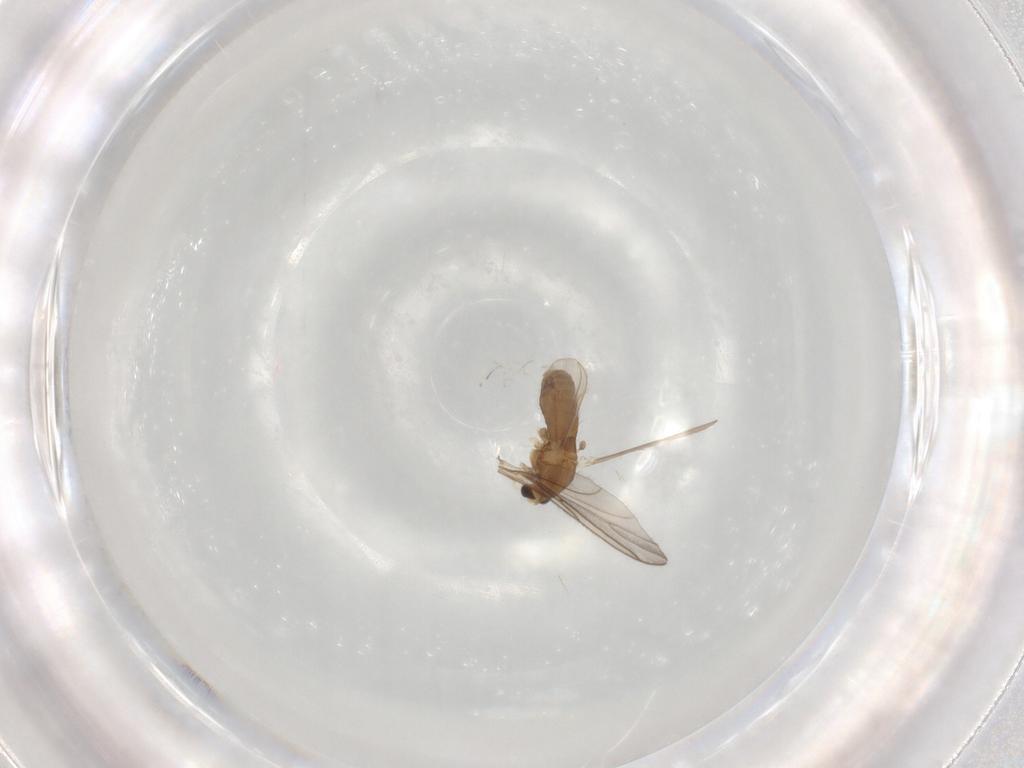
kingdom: Animalia
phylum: Arthropoda
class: Insecta
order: Diptera
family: Chironomidae
